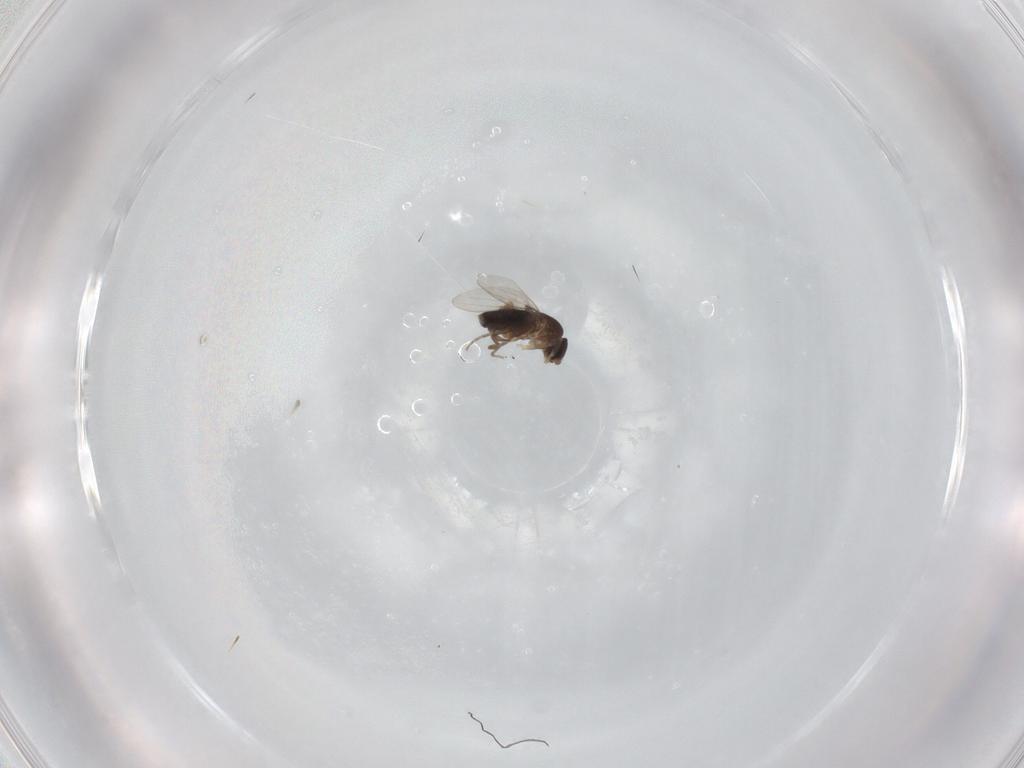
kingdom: Animalia
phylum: Arthropoda
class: Insecta
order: Diptera
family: Phoridae
